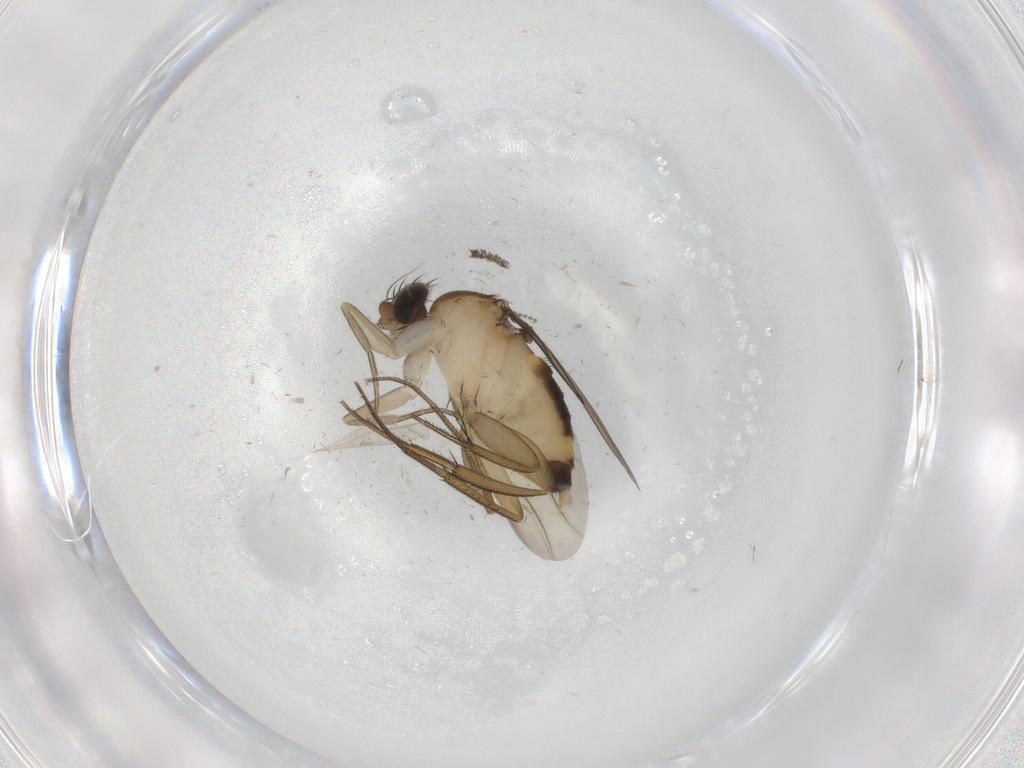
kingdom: Animalia
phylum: Arthropoda
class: Insecta
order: Diptera
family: Psychodidae
